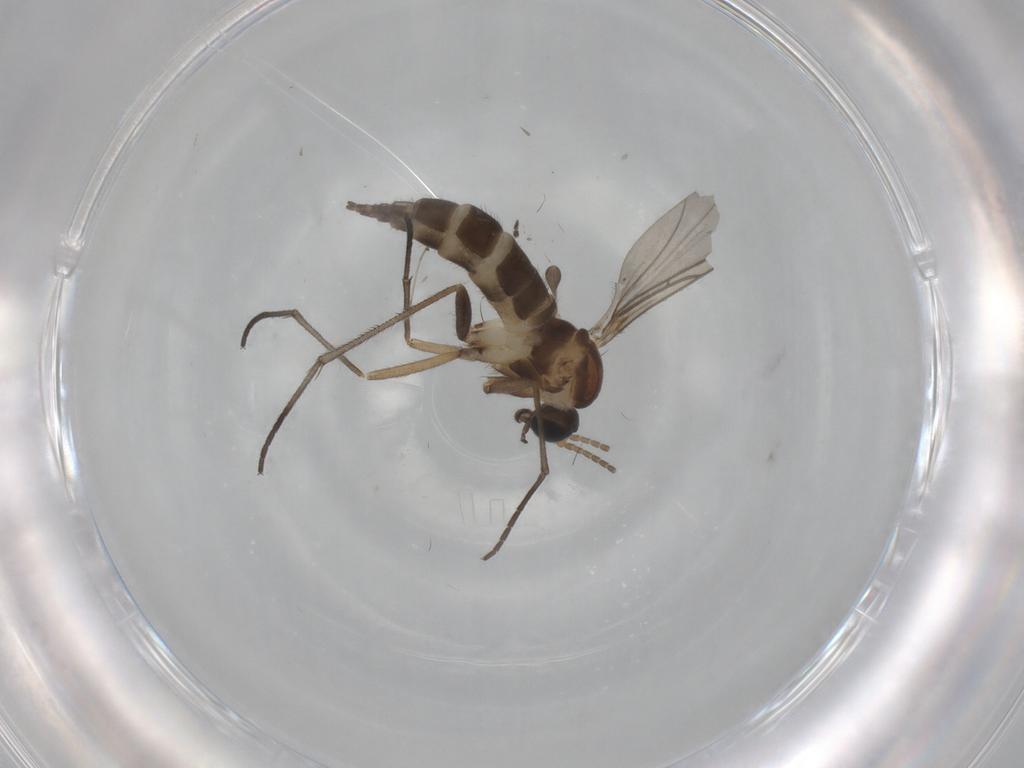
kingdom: Animalia
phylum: Arthropoda
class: Insecta
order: Diptera
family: Sciaridae
